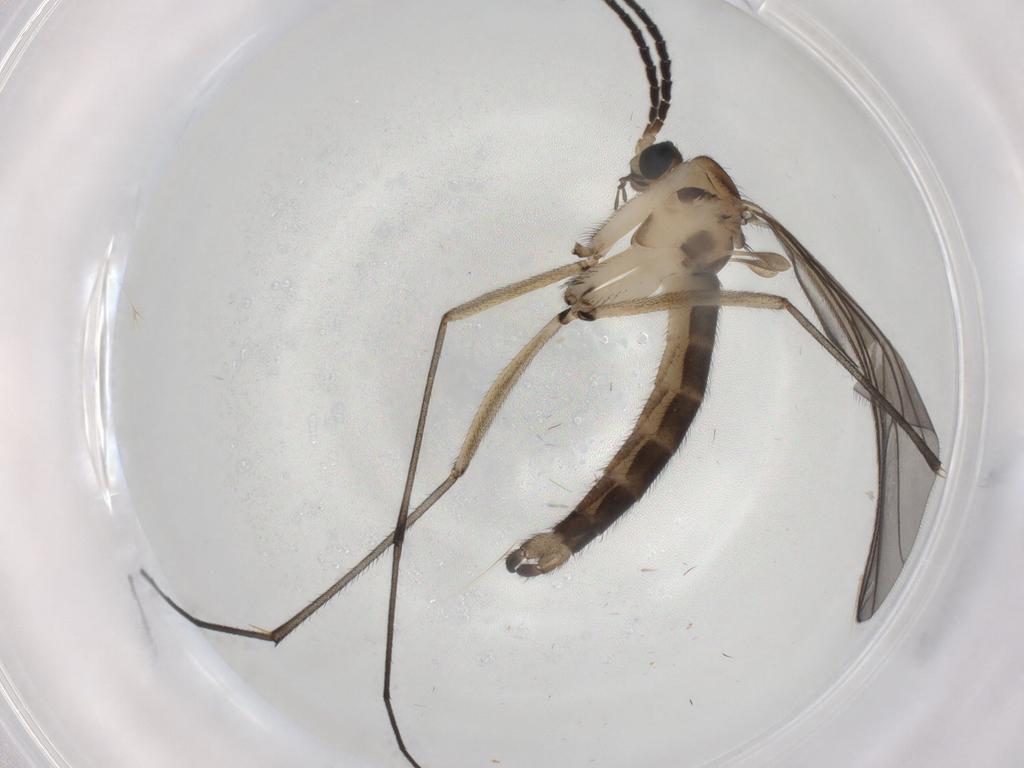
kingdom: Animalia
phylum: Arthropoda
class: Insecta
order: Diptera
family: Sciaridae
